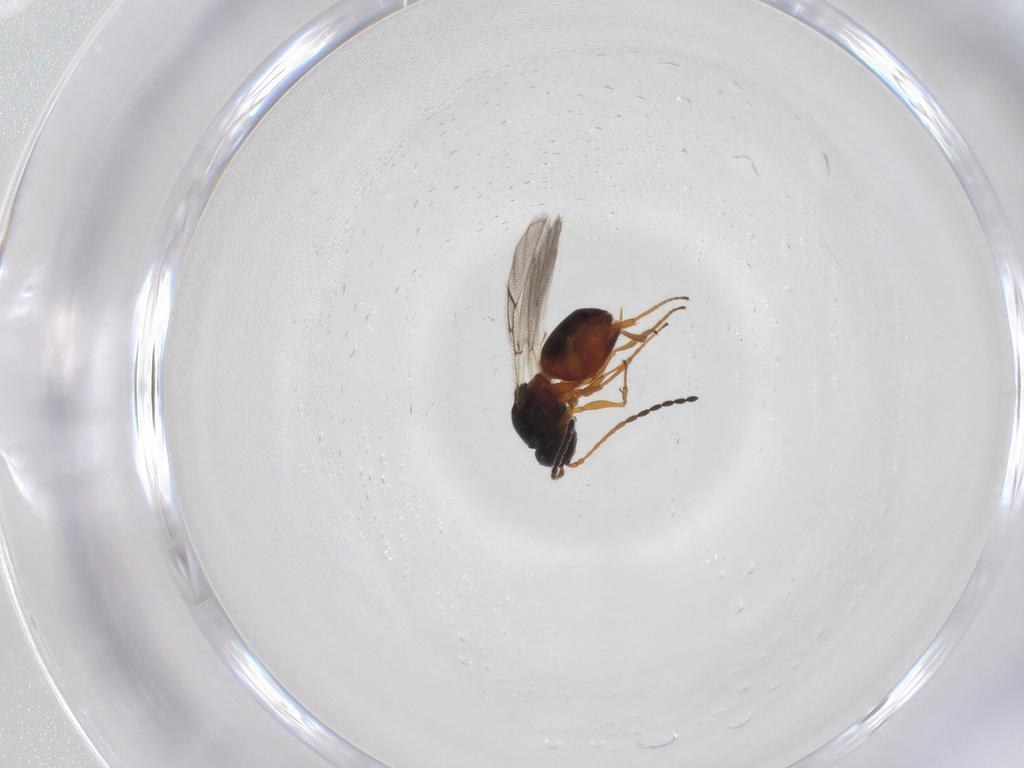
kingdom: Animalia
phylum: Arthropoda
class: Insecta
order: Hymenoptera
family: Figitidae
